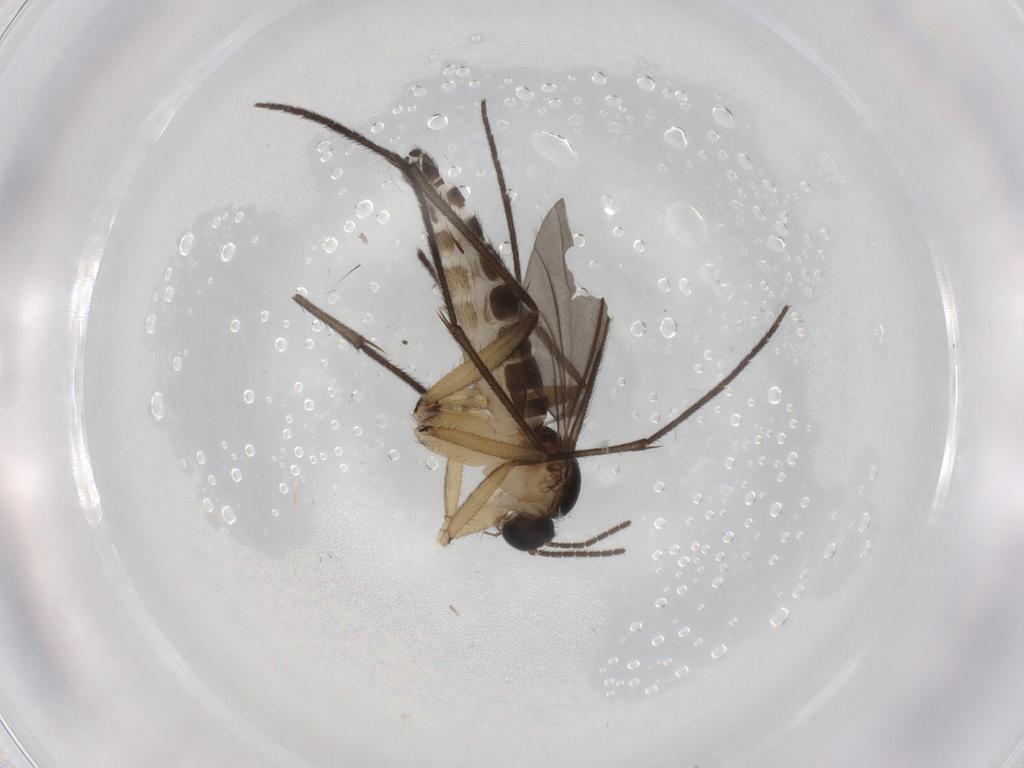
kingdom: Animalia
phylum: Arthropoda
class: Insecta
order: Diptera
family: Sciaridae
